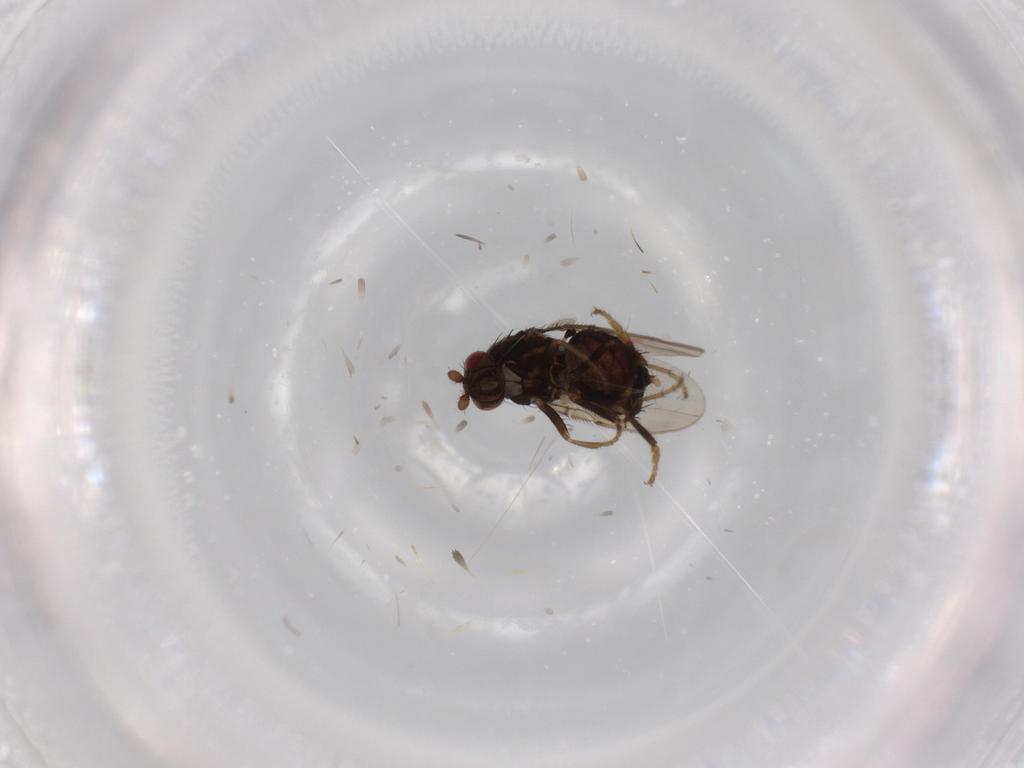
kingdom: Animalia
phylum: Arthropoda
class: Insecta
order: Diptera
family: Sphaeroceridae
